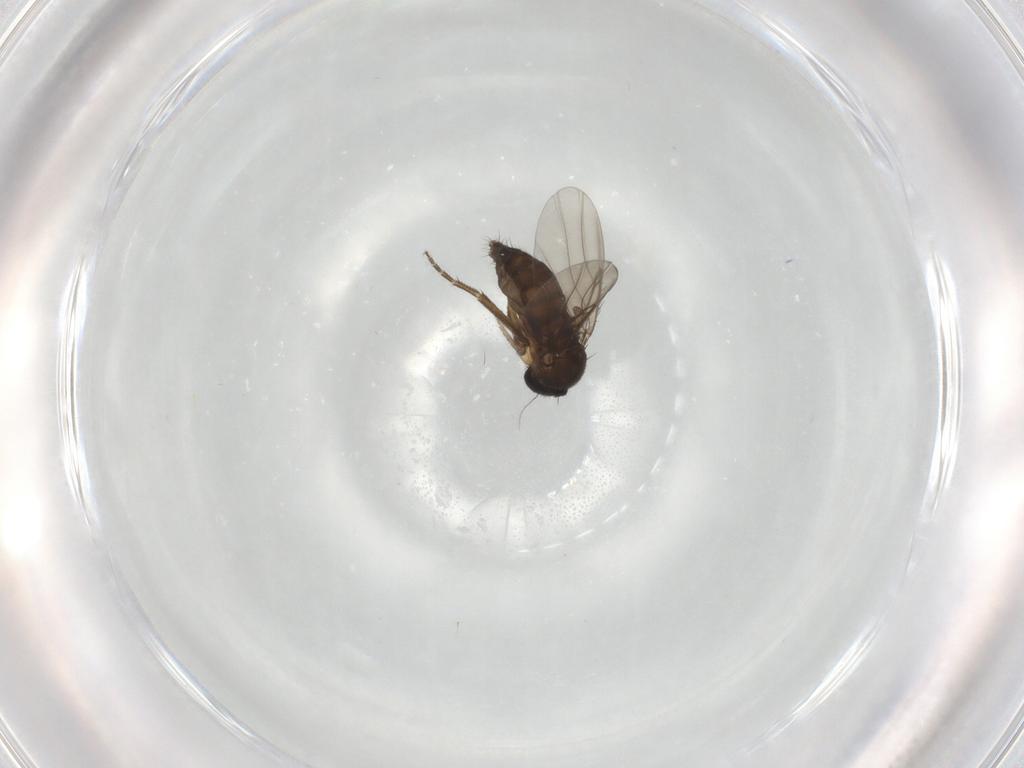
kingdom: Animalia
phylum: Arthropoda
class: Insecta
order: Diptera
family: Phoridae
